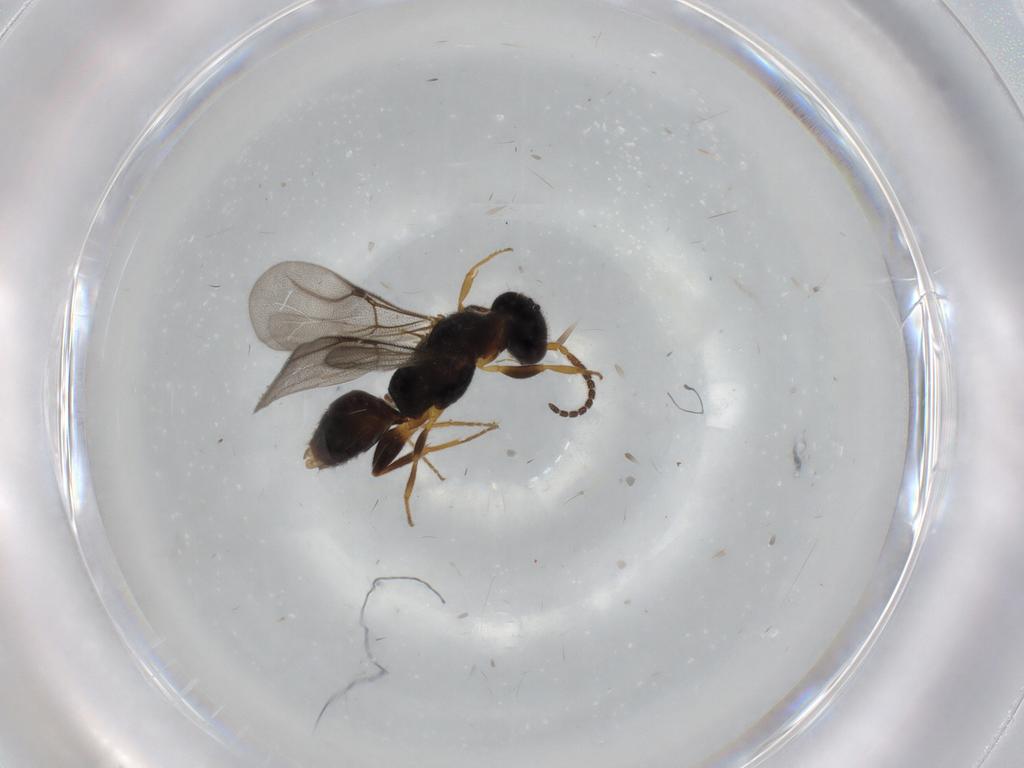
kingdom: Animalia
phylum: Arthropoda
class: Insecta
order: Hymenoptera
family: Bethylidae
